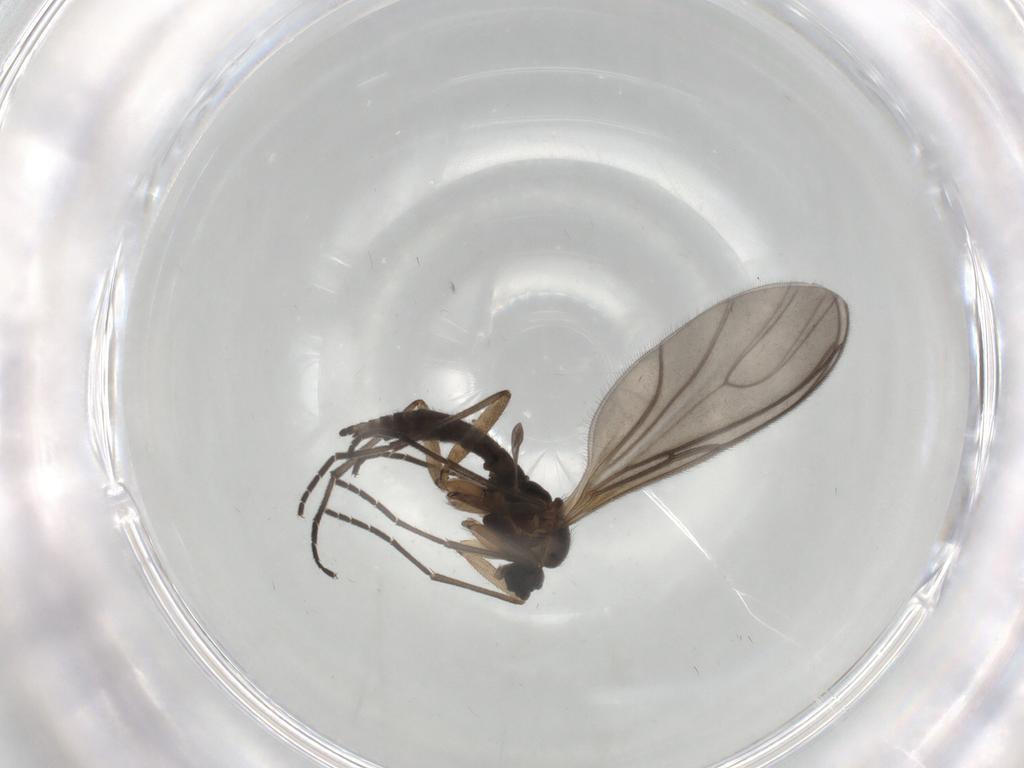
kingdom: Animalia
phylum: Arthropoda
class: Insecta
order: Diptera
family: Sciaridae
